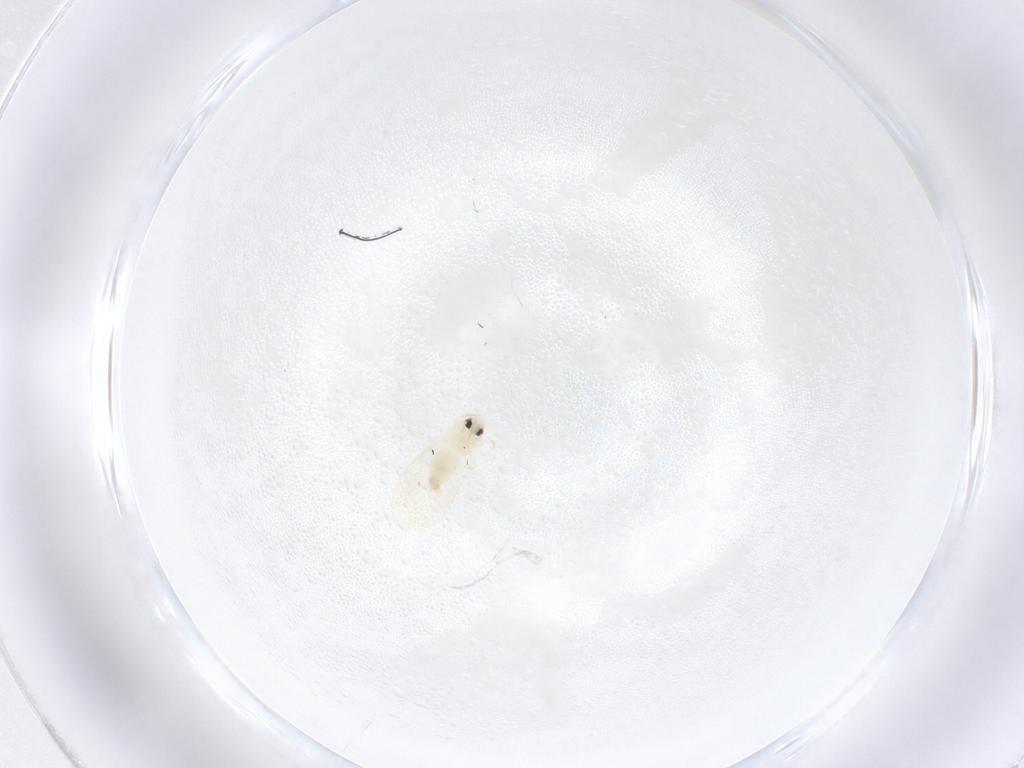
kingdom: Animalia
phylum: Arthropoda
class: Insecta
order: Hemiptera
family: Aleyrodidae
